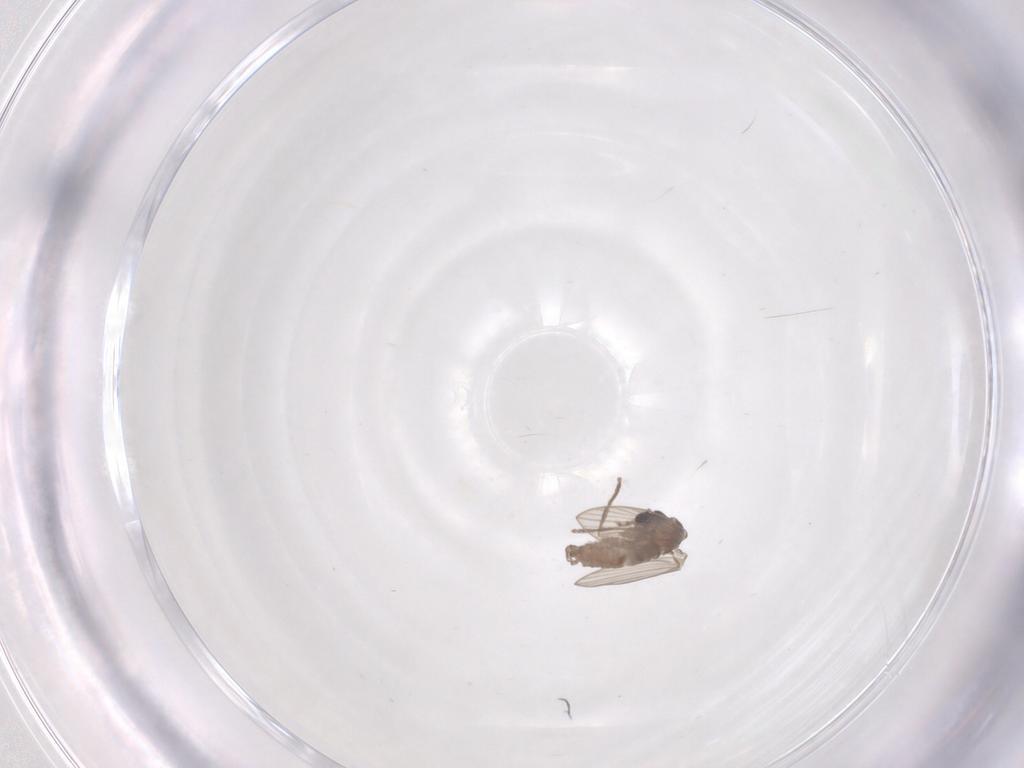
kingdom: Animalia
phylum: Arthropoda
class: Insecta
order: Diptera
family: Psychodidae
